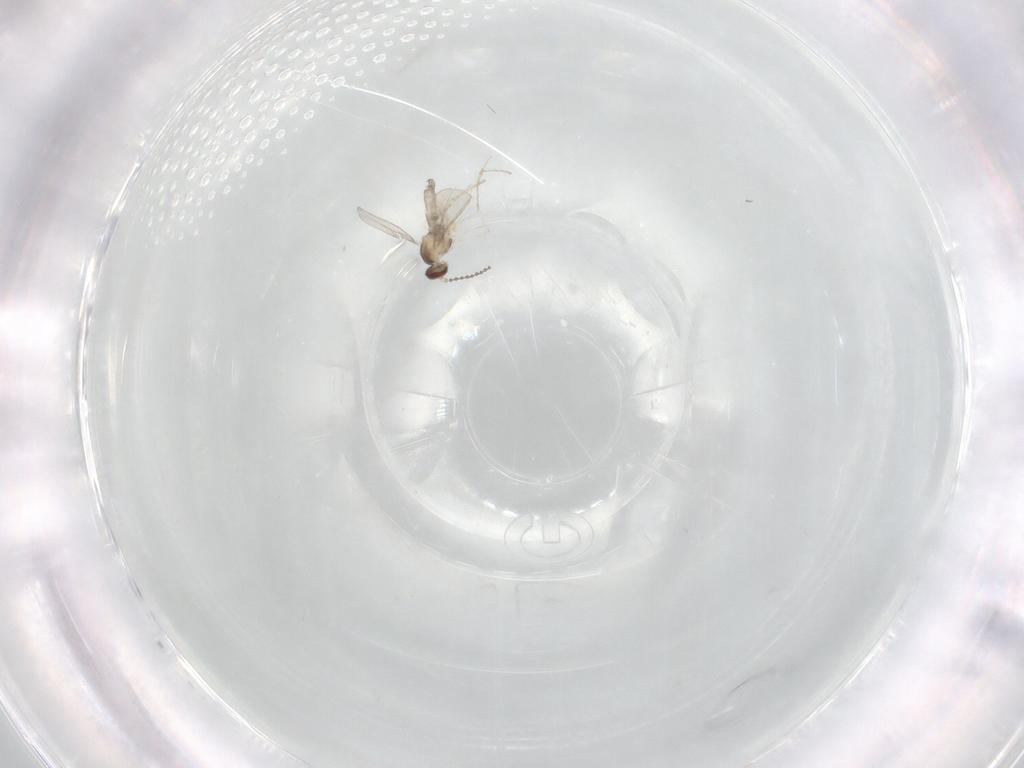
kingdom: Animalia
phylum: Arthropoda
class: Insecta
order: Diptera
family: Cecidomyiidae
